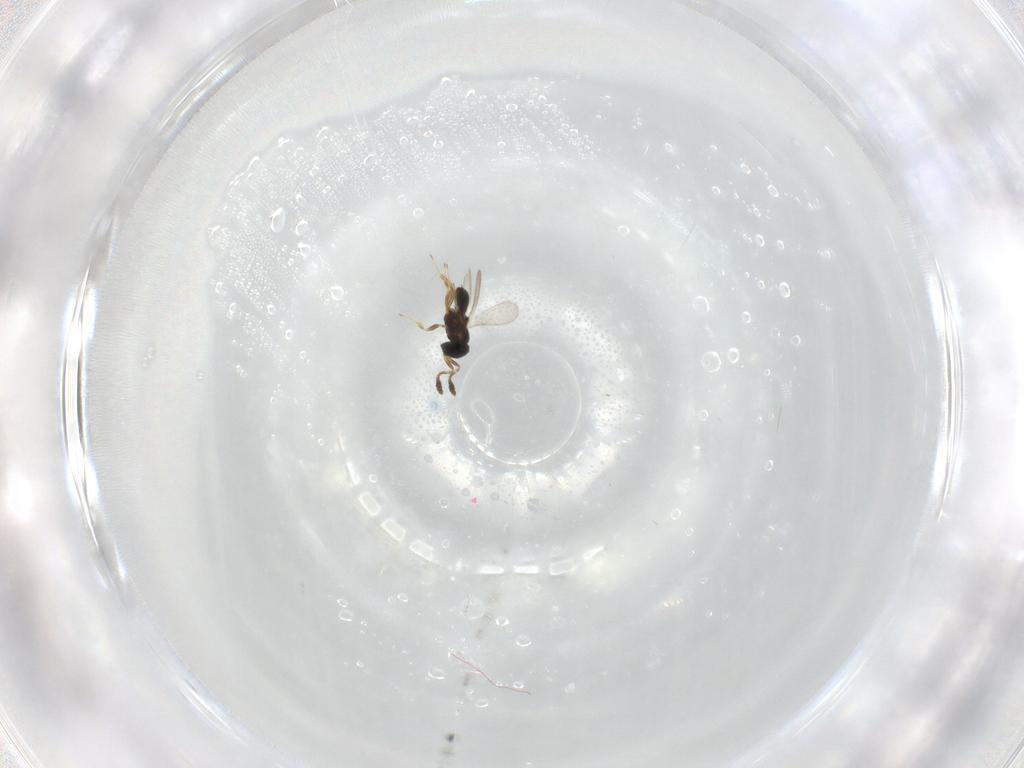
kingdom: Animalia
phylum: Arthropoda
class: Insecta
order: Hymenoptera
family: Scelionidae
